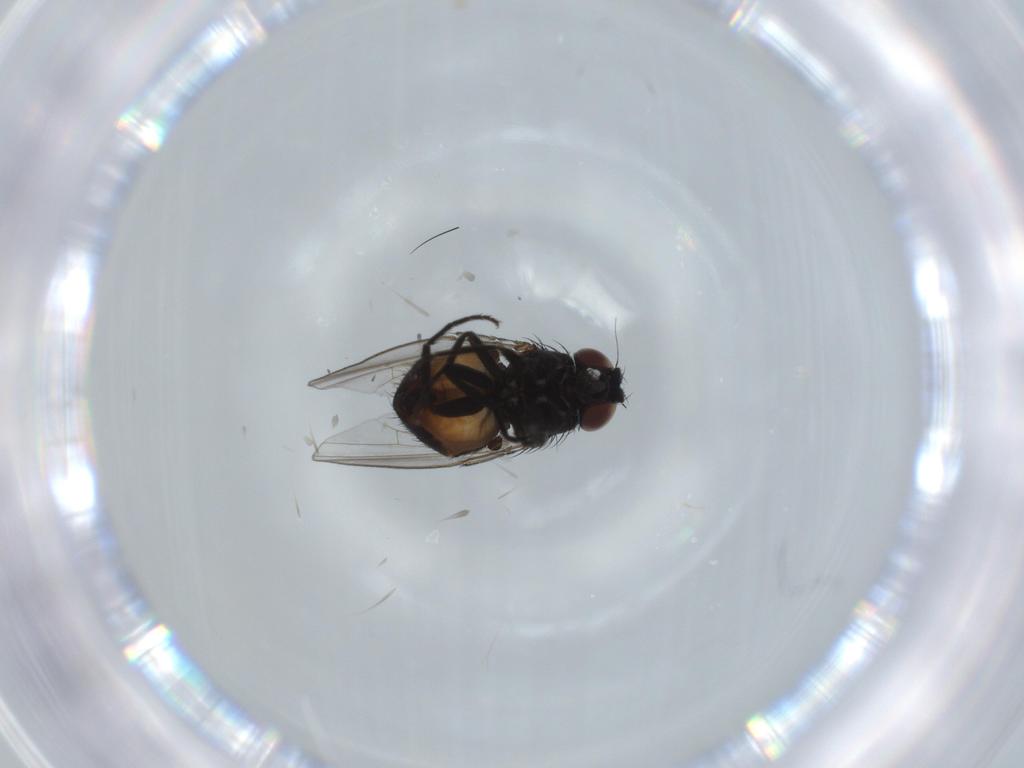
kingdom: Animalia
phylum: Arthropoda
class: Insecta
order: Diptera
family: Milichiidae
